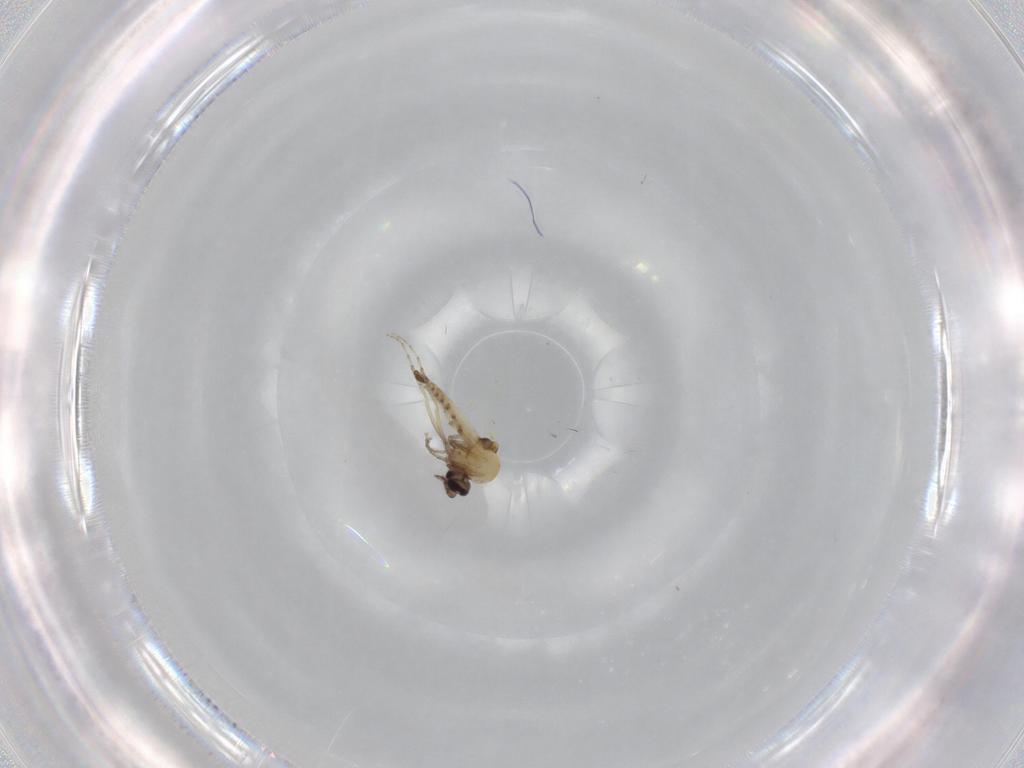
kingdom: Animalia
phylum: Arthropoda
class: Insecta
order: Diptera
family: Ceratopogonidae
